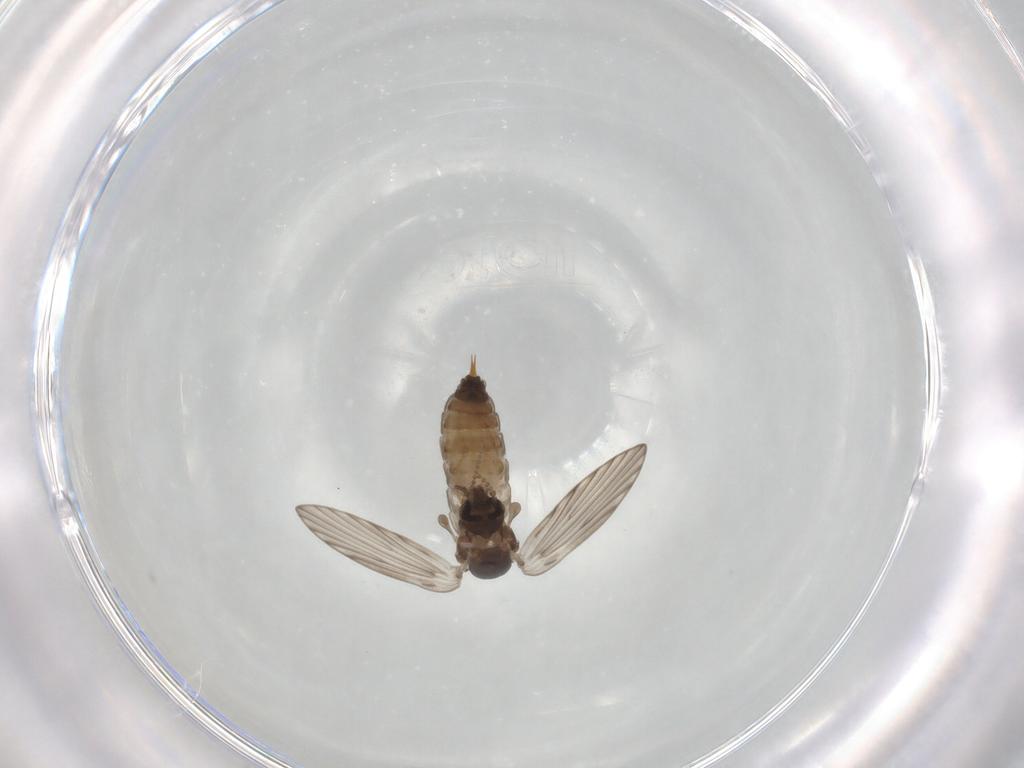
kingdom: Animalia
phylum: Arthropoda
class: Insecta
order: Diptera
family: Psychodidae
